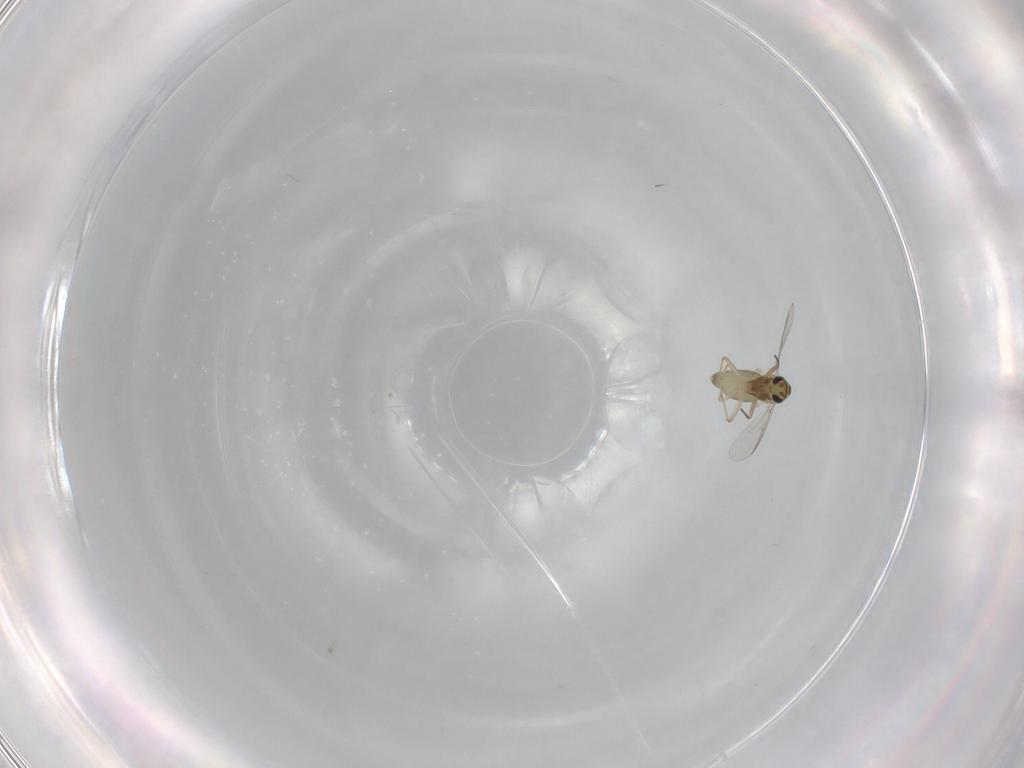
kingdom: Animalia
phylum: Arthropoda
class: Insecta
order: Diptera
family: Chironomidae
